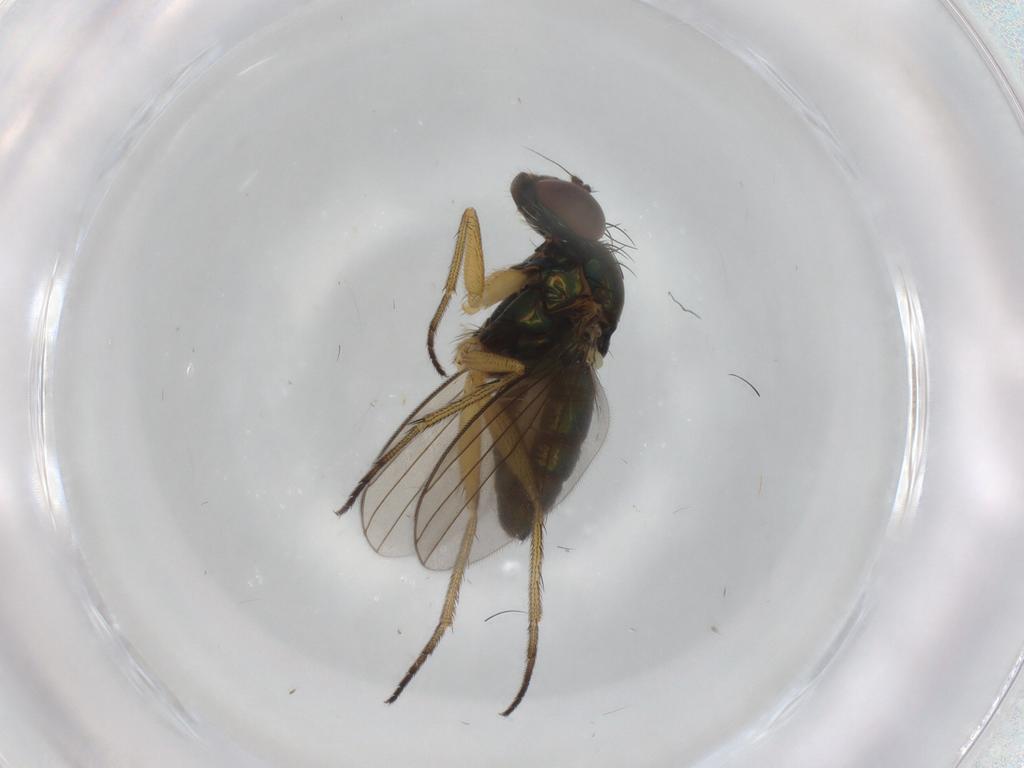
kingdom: Animalia
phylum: Arthropoda
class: Insecta
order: Diptera
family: Dolichopodidae
